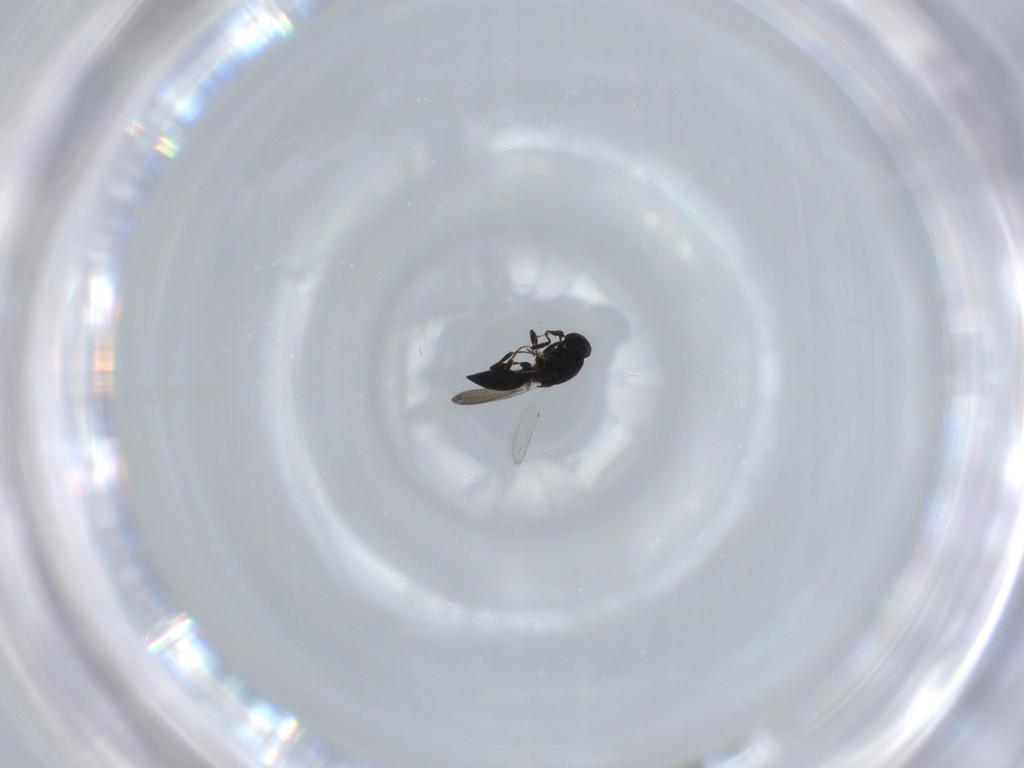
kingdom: Animalia
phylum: Arthropoda
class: Insecta
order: Hymenoptera
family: Platygastridae
